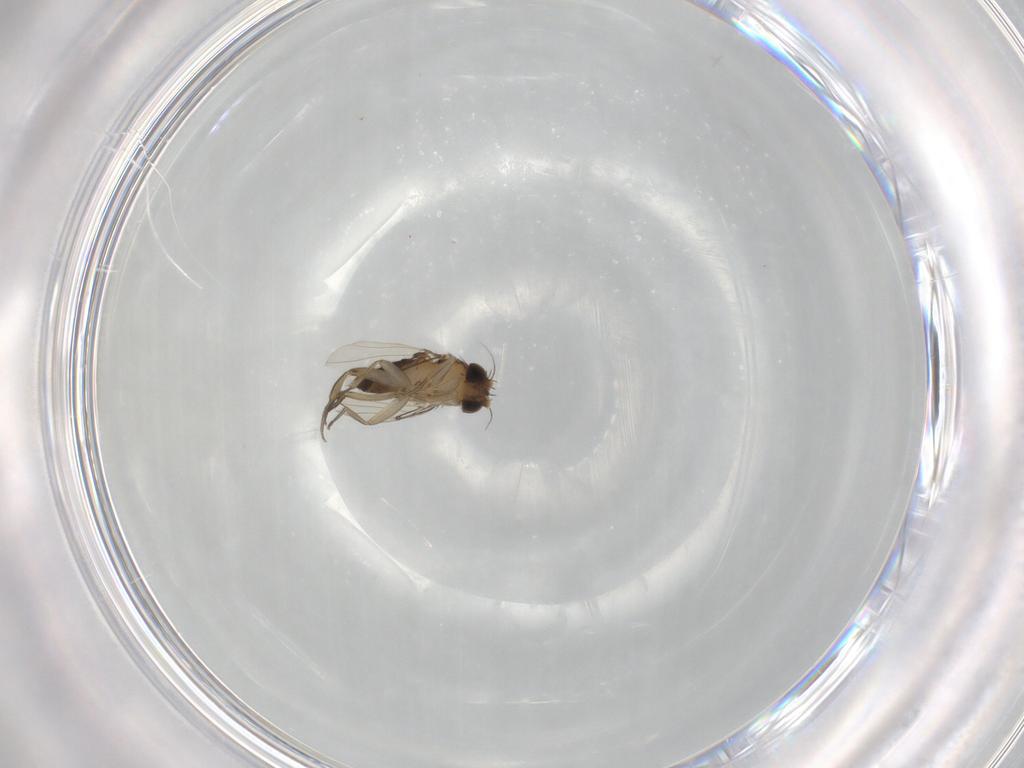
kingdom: Animalia
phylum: Arthropoda
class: Insecta
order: Diptera
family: Phoridae
